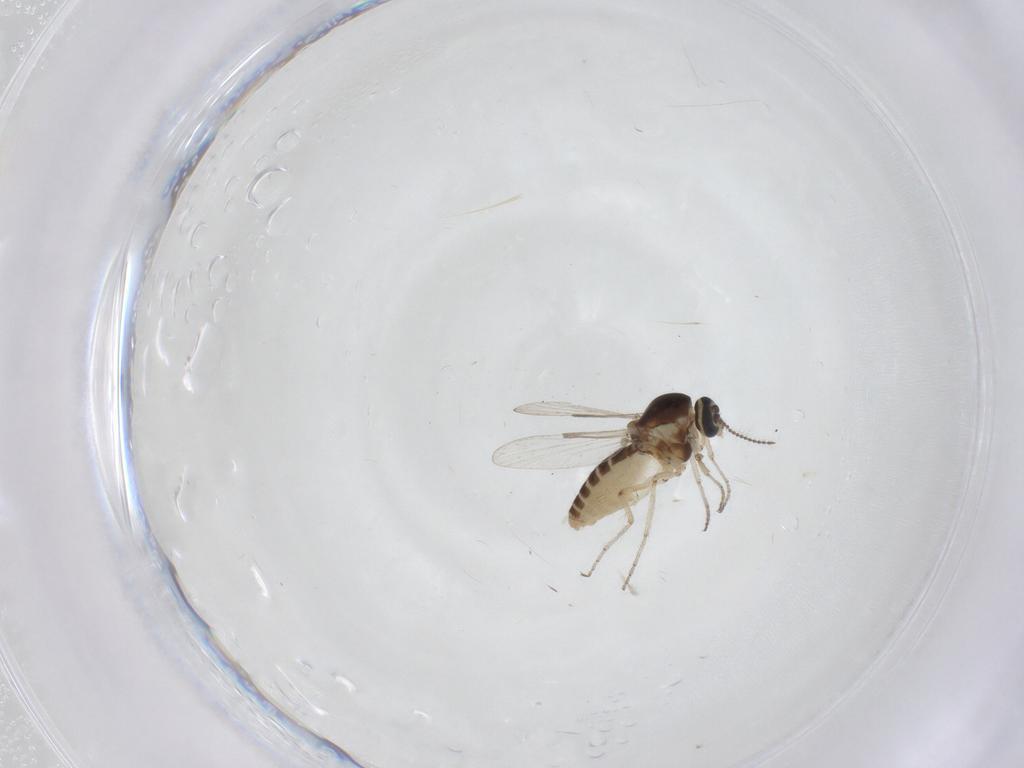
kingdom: Animalia
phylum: Arthropoda
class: Insecta
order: Diptera
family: Ceratopogonidae
